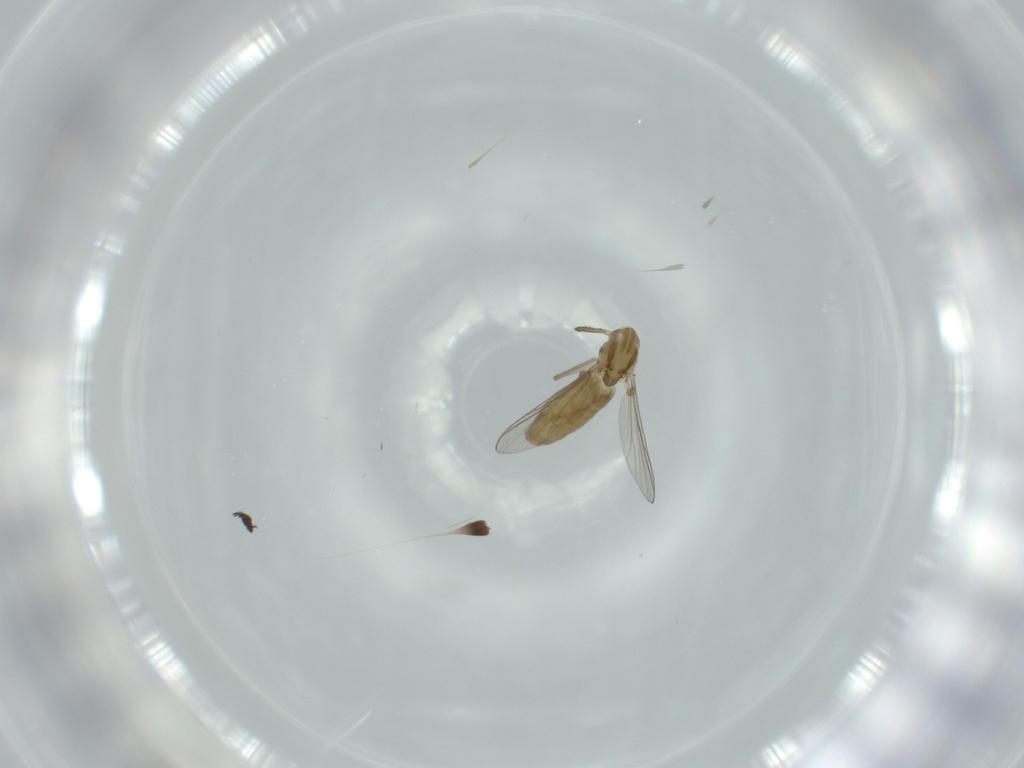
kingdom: Animalia
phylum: Arthropoda
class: Insecta
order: Diptera
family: Chironomidae
